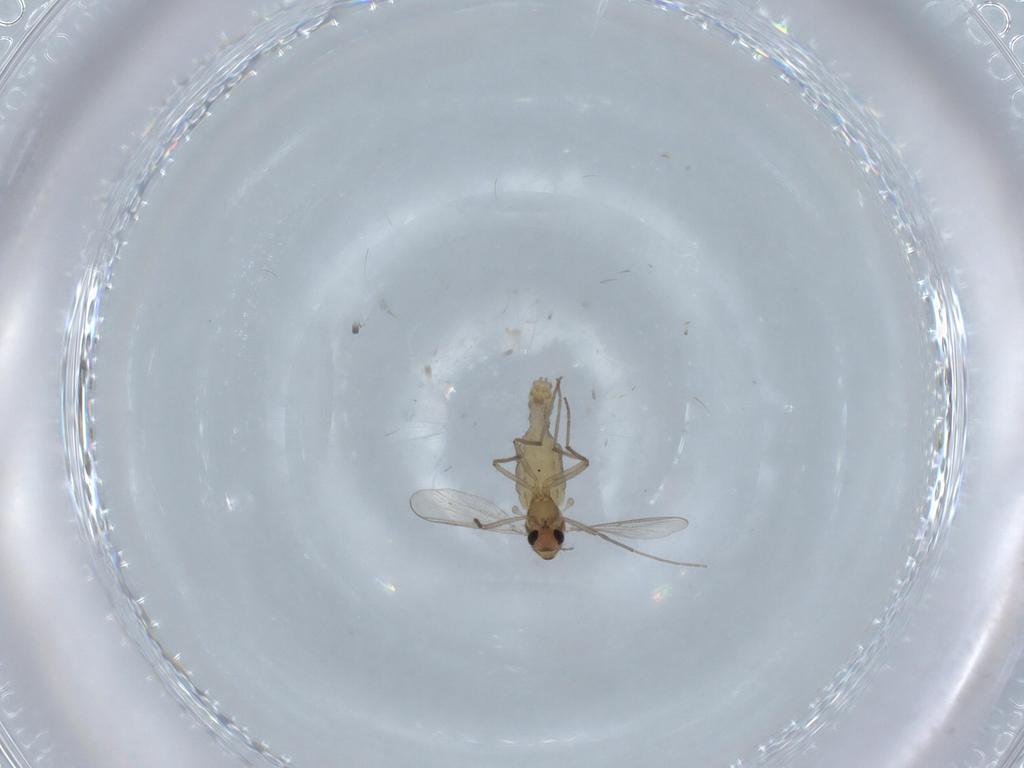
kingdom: Animalia
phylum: Arthropoda
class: Insecta
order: Diptera
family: Chironomidae
